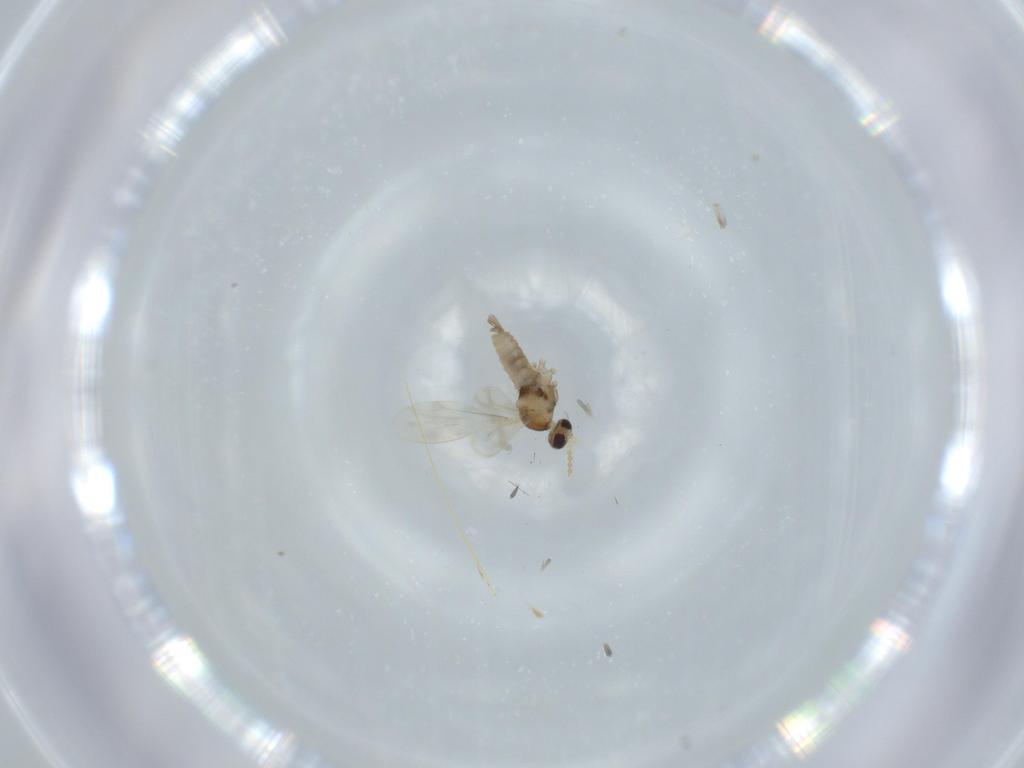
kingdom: Animalia
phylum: Arthropoda
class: Insecta
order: Diptera
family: Cecidomyiidae
